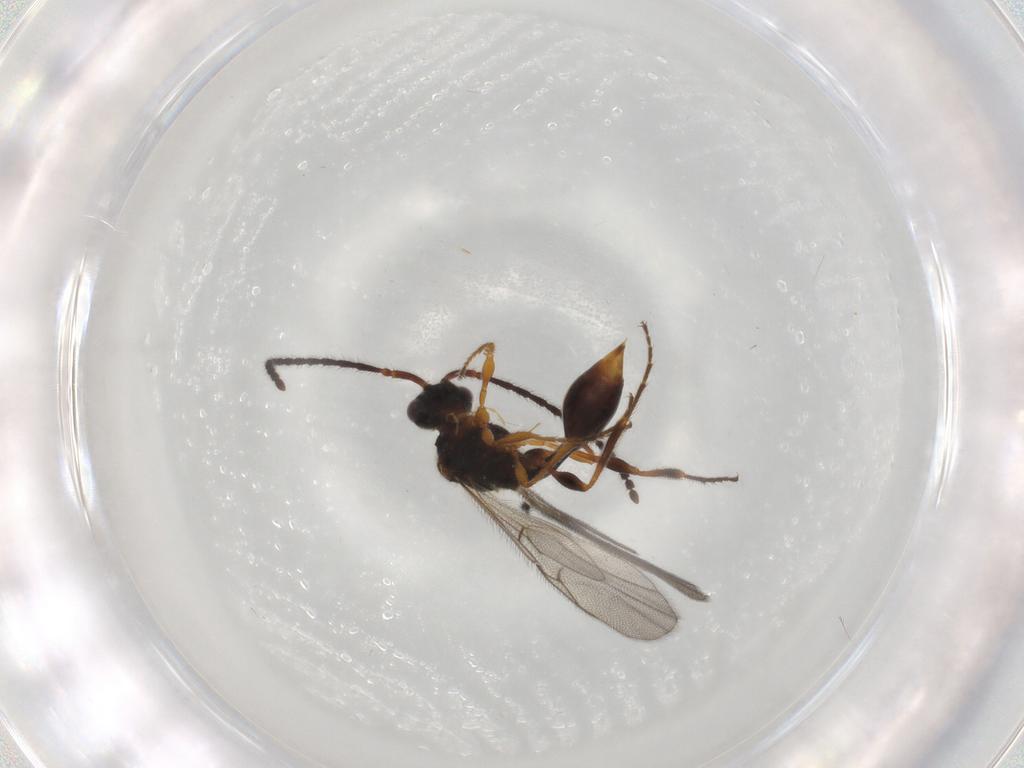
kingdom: Animalia
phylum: Arthropoda
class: Insecta
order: Hymenoptera
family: Diapriidae
